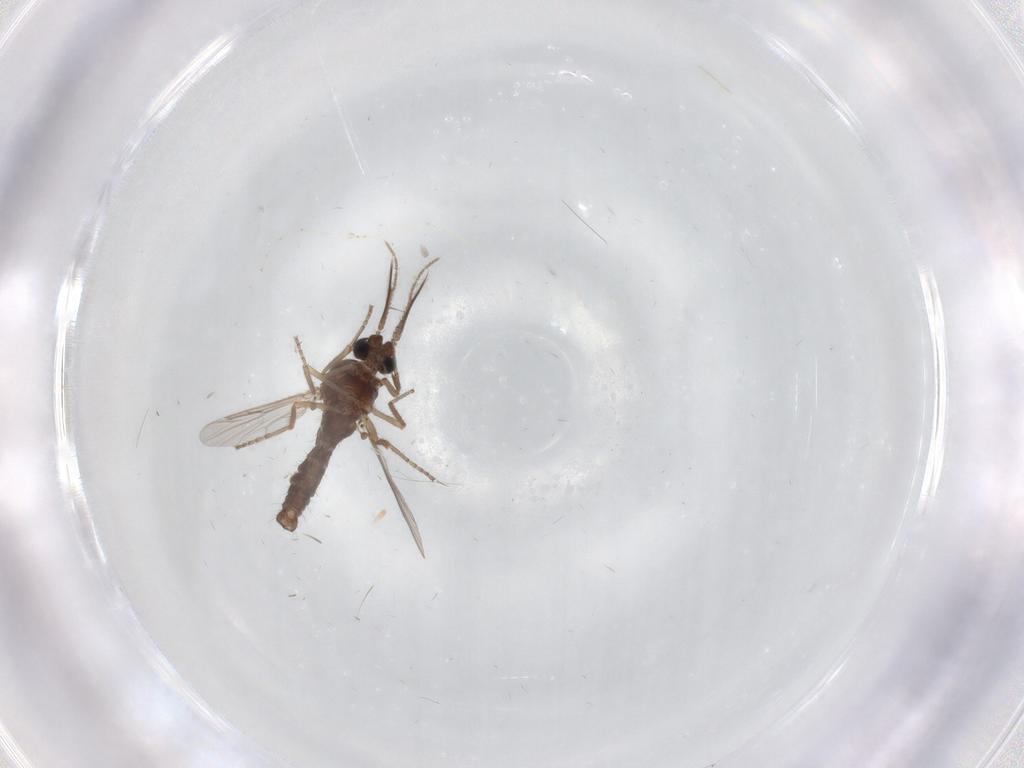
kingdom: Animalia
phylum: Arthropoda
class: Insecta
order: Diptera
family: Ceratopogonidae
